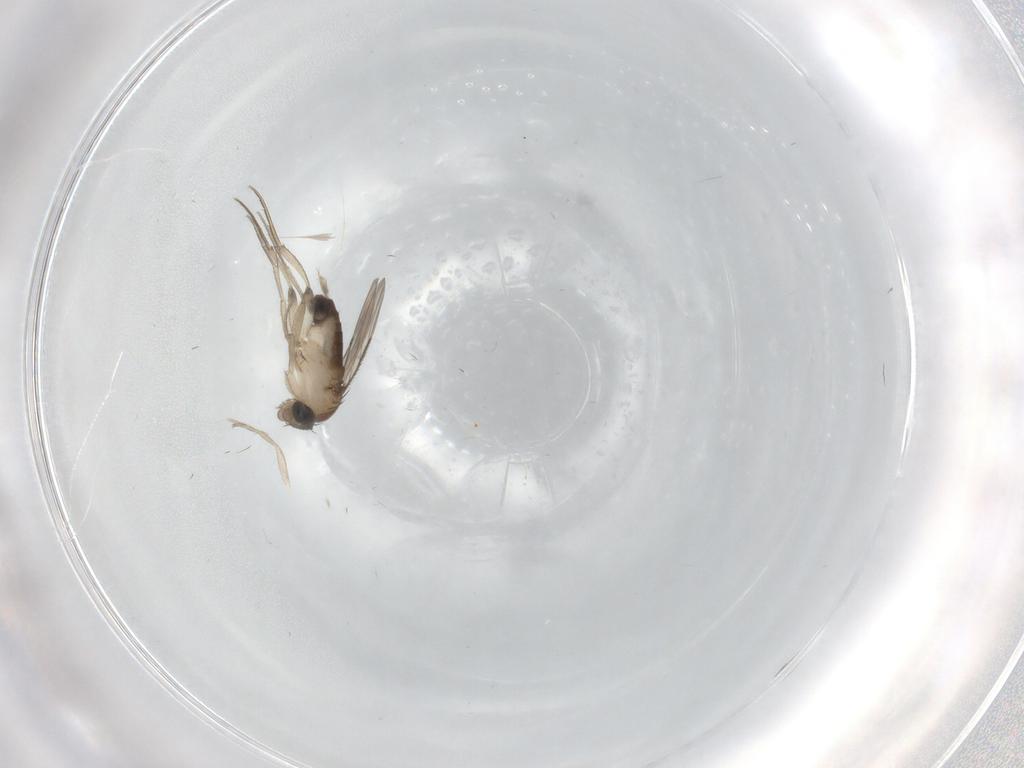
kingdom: Animalia
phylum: Arthropoda
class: Insecta
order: Diptera
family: Phoridae
